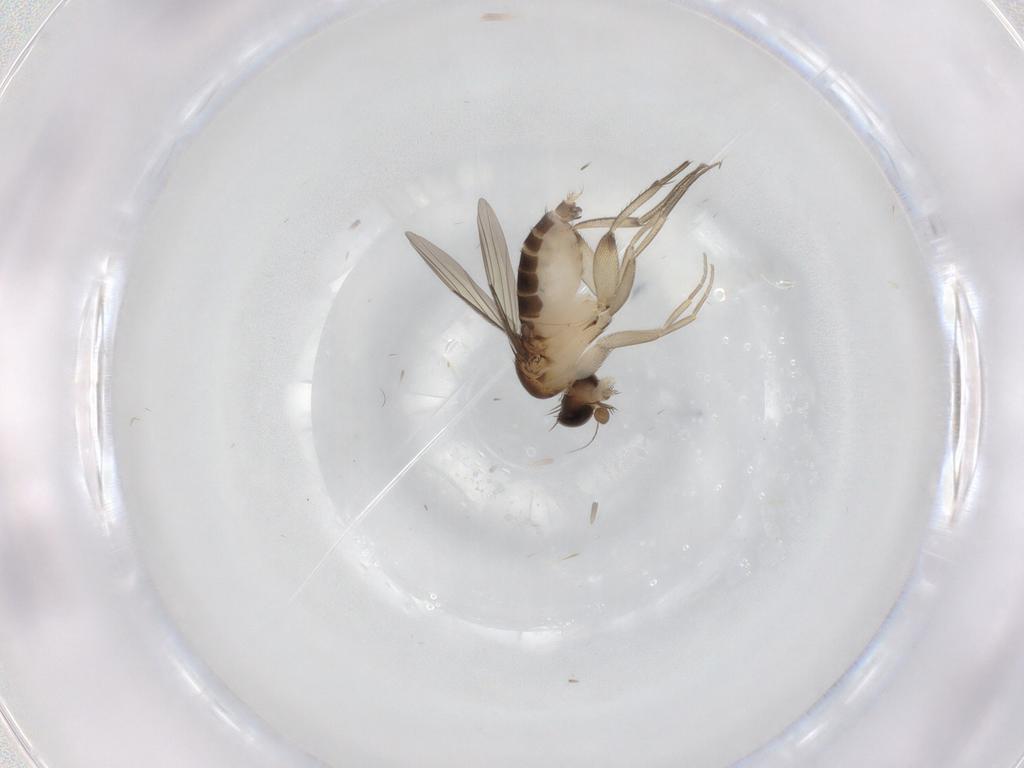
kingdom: Animalia
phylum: Arthropoda
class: Insecta
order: Diptera
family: Phoridae
